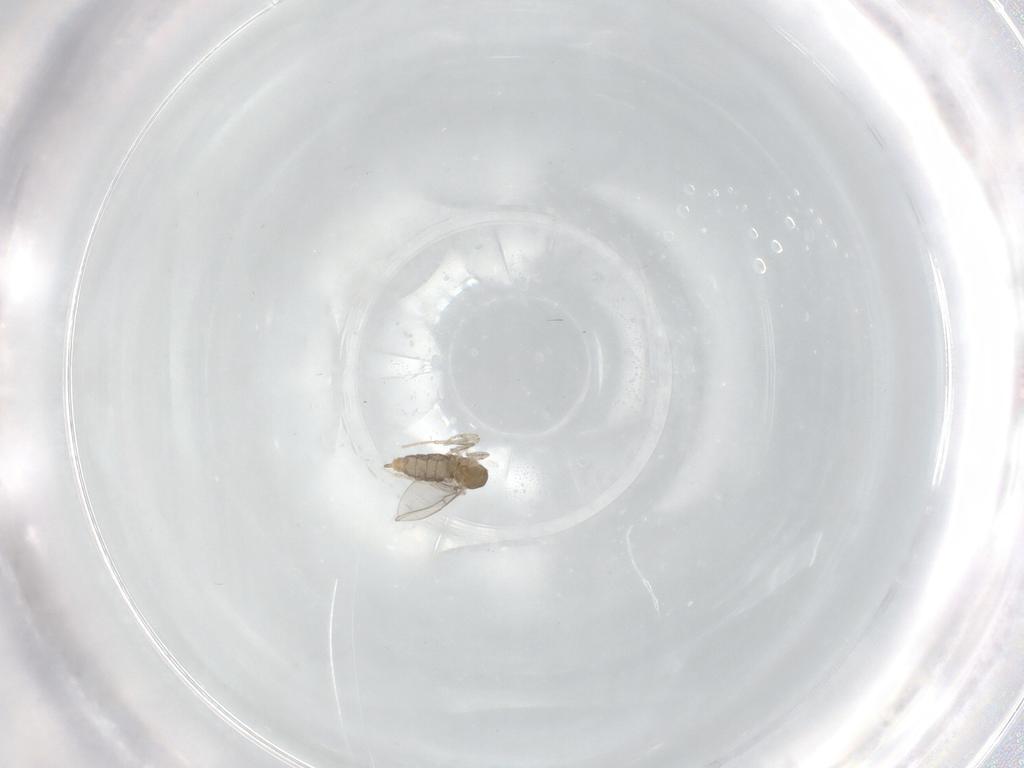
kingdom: Animalia
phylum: Arthropoda
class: Insecta
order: Diptera
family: Cecidomyiidae
